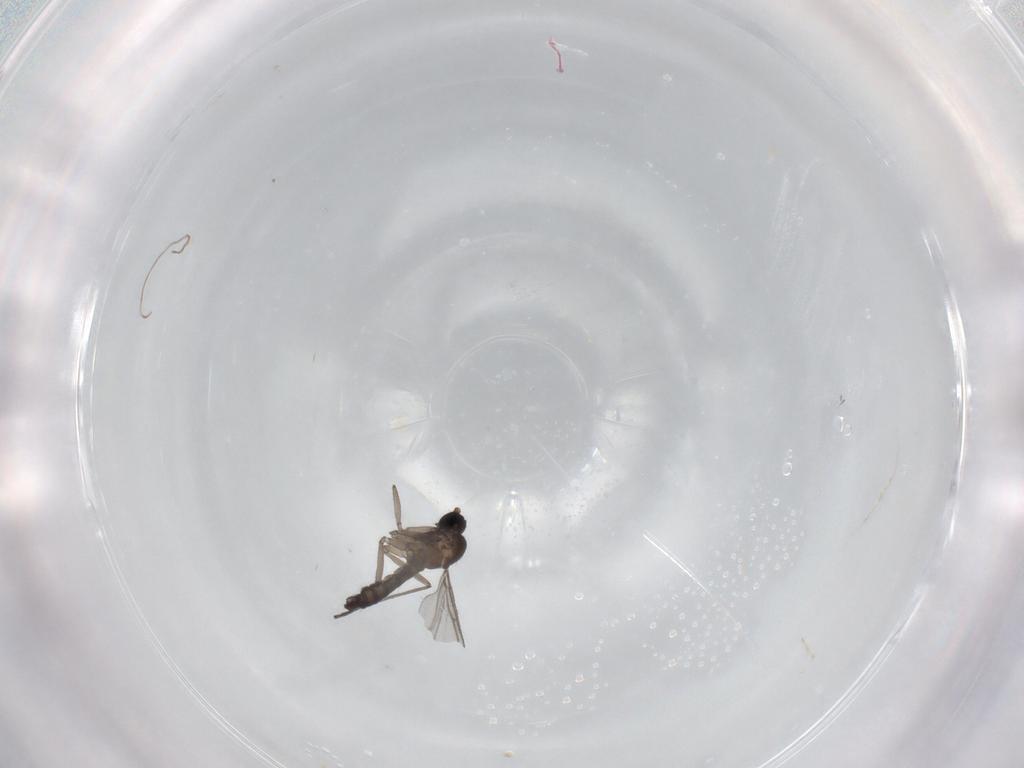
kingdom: Animalia
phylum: Arthropoda
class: Insecta
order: Diptera
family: Sciaridae
